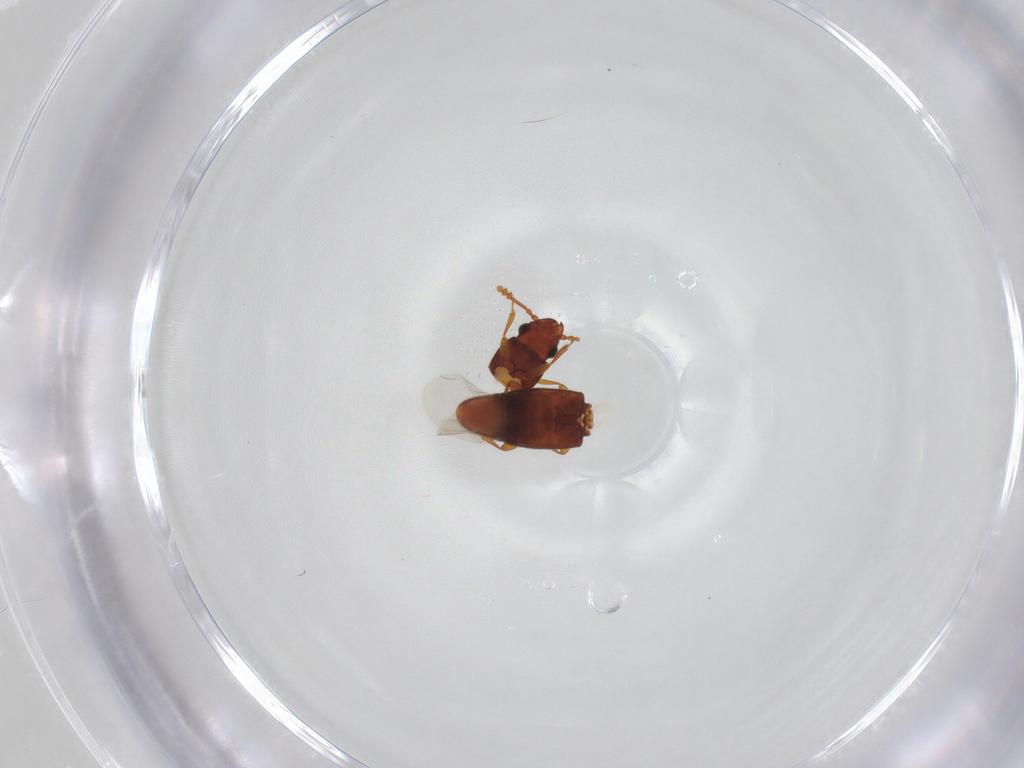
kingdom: Animalia
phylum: Arthropoda
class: Insecta
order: Coleoptera
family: Smicripidae
